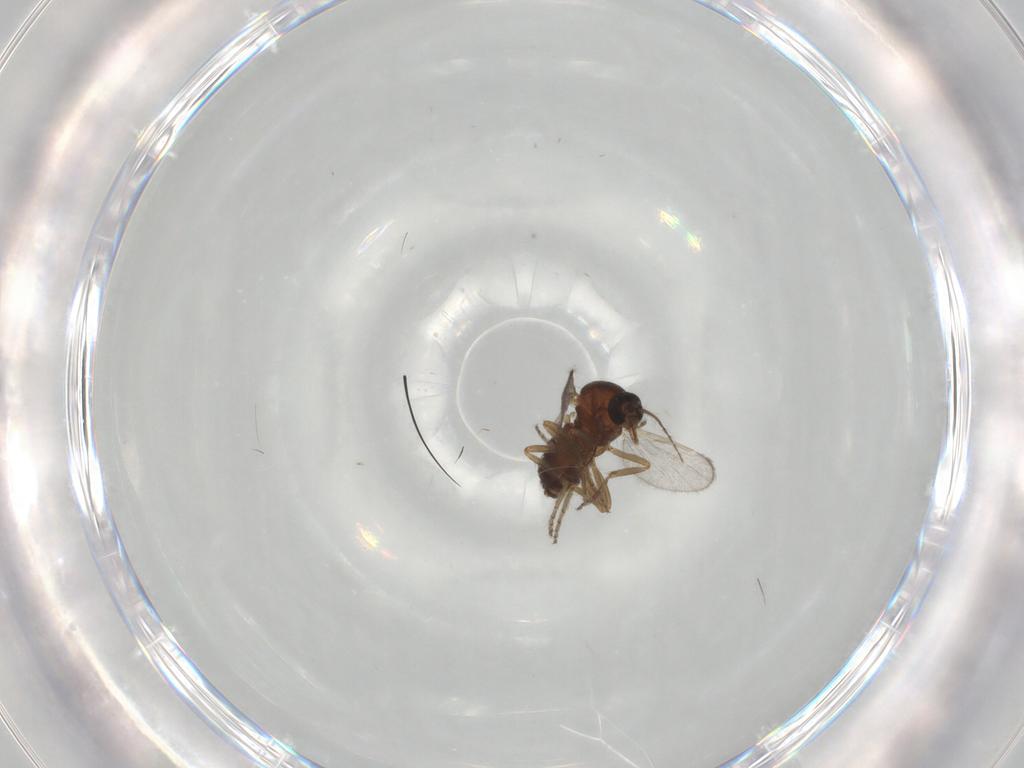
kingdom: Animalia
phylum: Arthropoda
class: Insecta
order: Diptera
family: Ceratopogonidae
